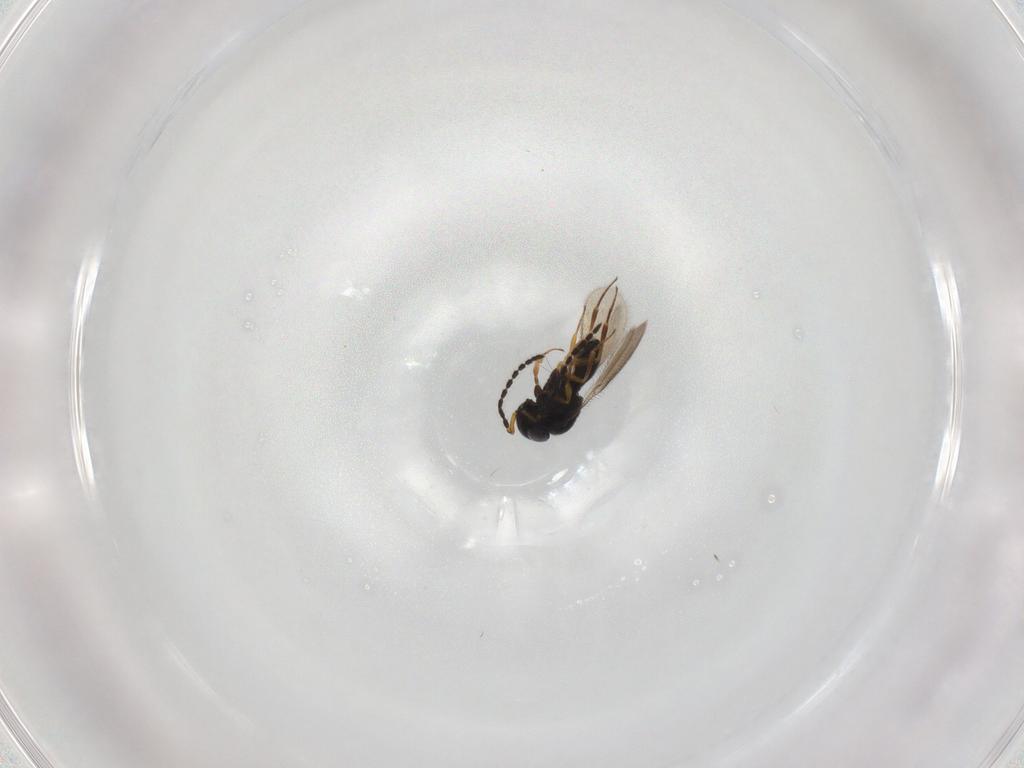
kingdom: Animalia
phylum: Arthropoda
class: Insecta
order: Hymenoptera
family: Scelionidae
